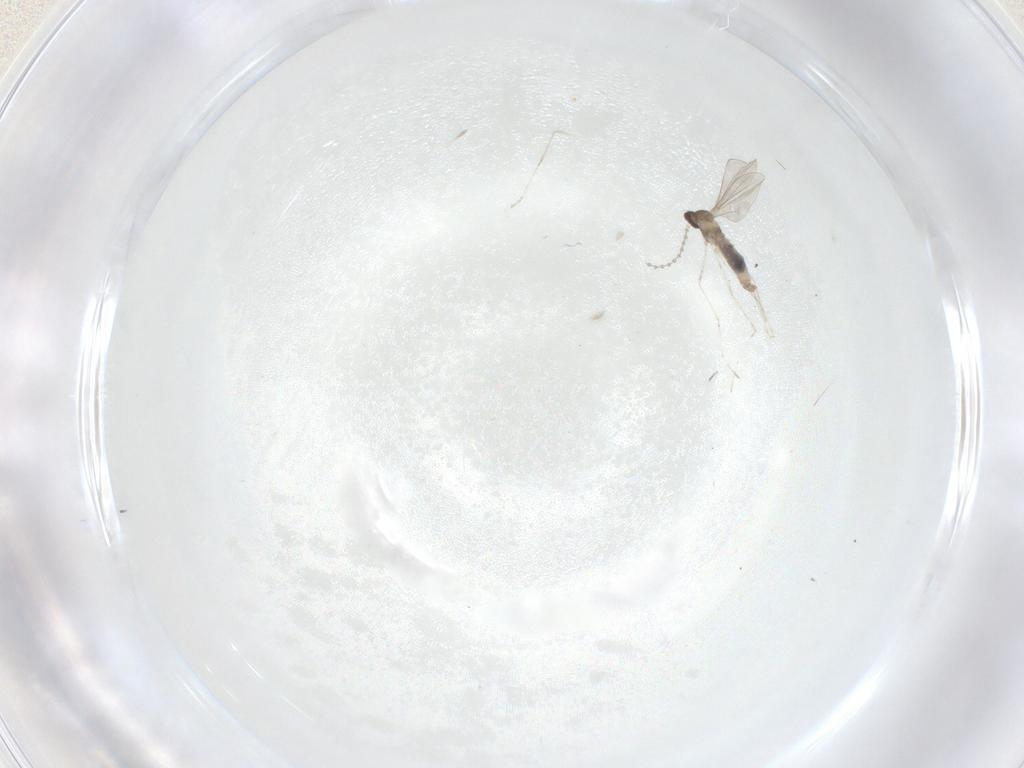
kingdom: Animalia
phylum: Arthropoda
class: Insecta
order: Diptera
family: Cecidomyiidae
